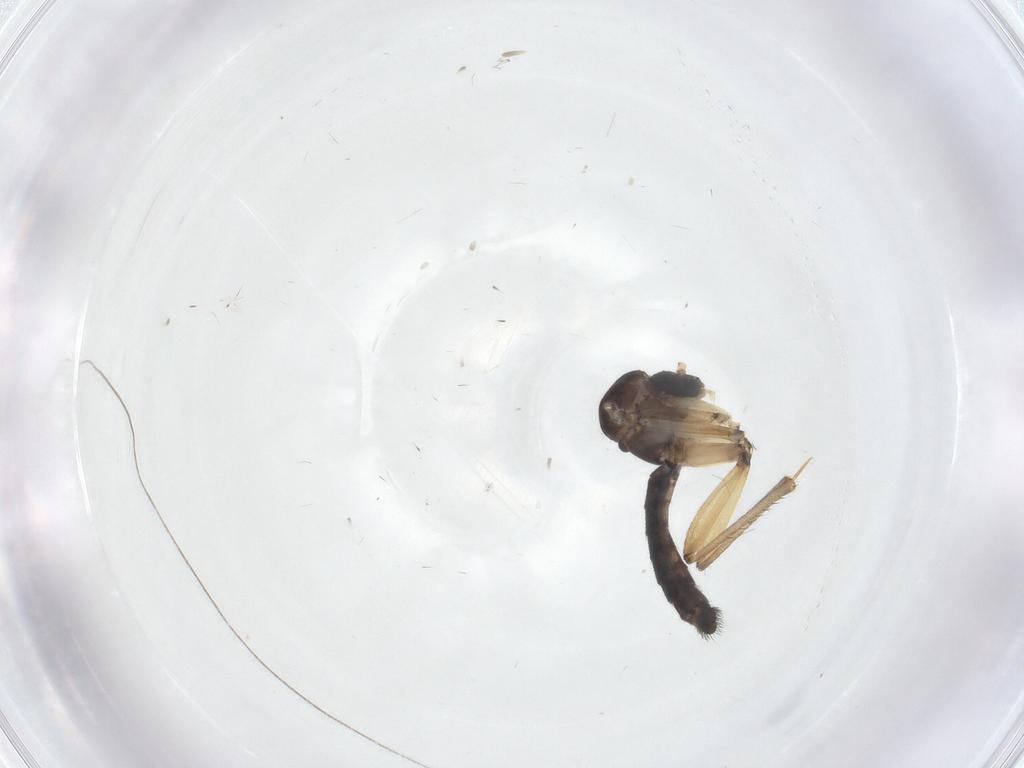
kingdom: Animalia
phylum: Arthropoda
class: Insecta
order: Diptera
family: Mycetophilidae
